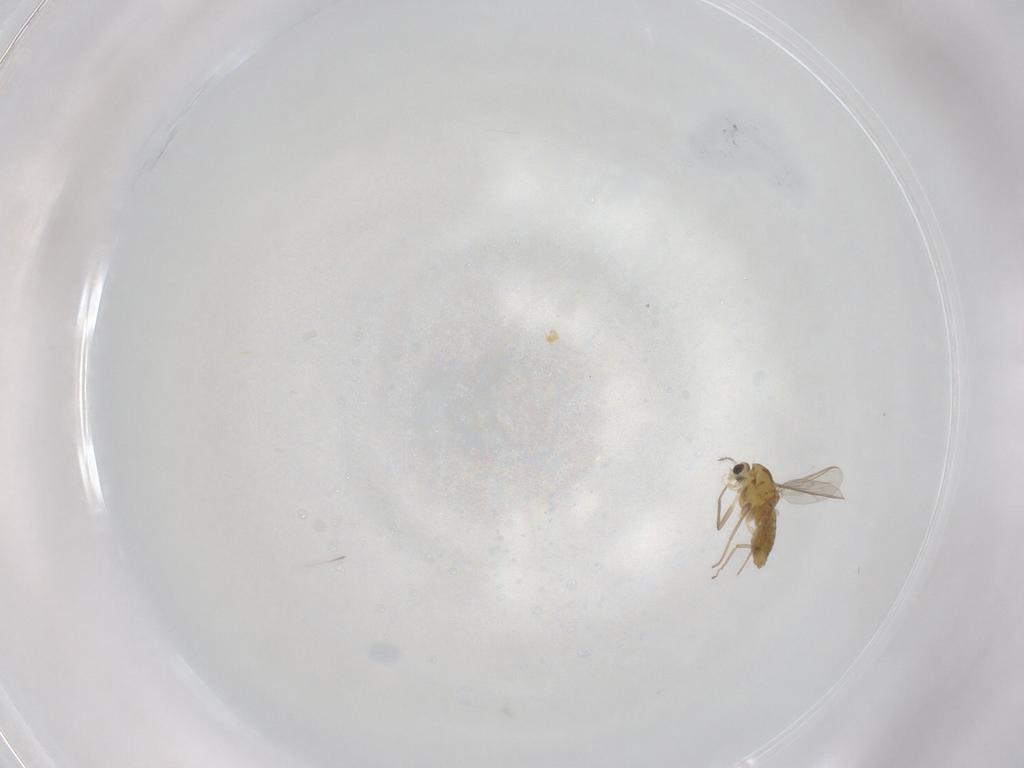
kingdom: Animalia
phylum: Arthropoda
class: Insecta
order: Diptera
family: Chironomidae
